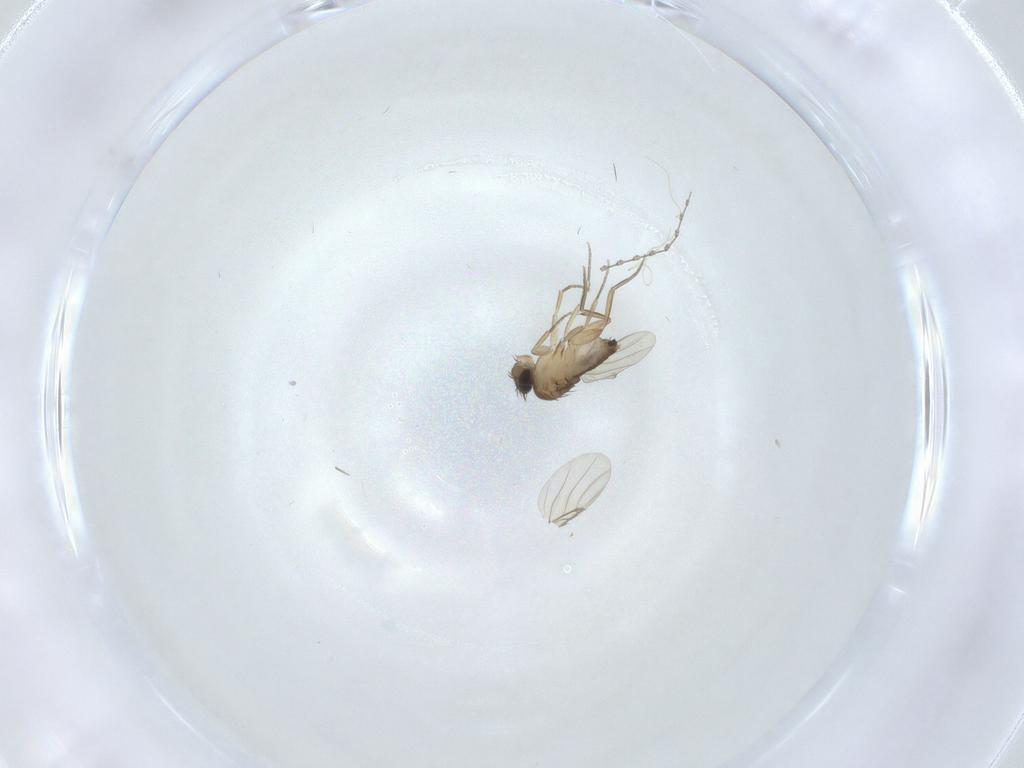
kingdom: Animalia
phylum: Arthropoda
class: Insecta
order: Diptera
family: Phoridae
